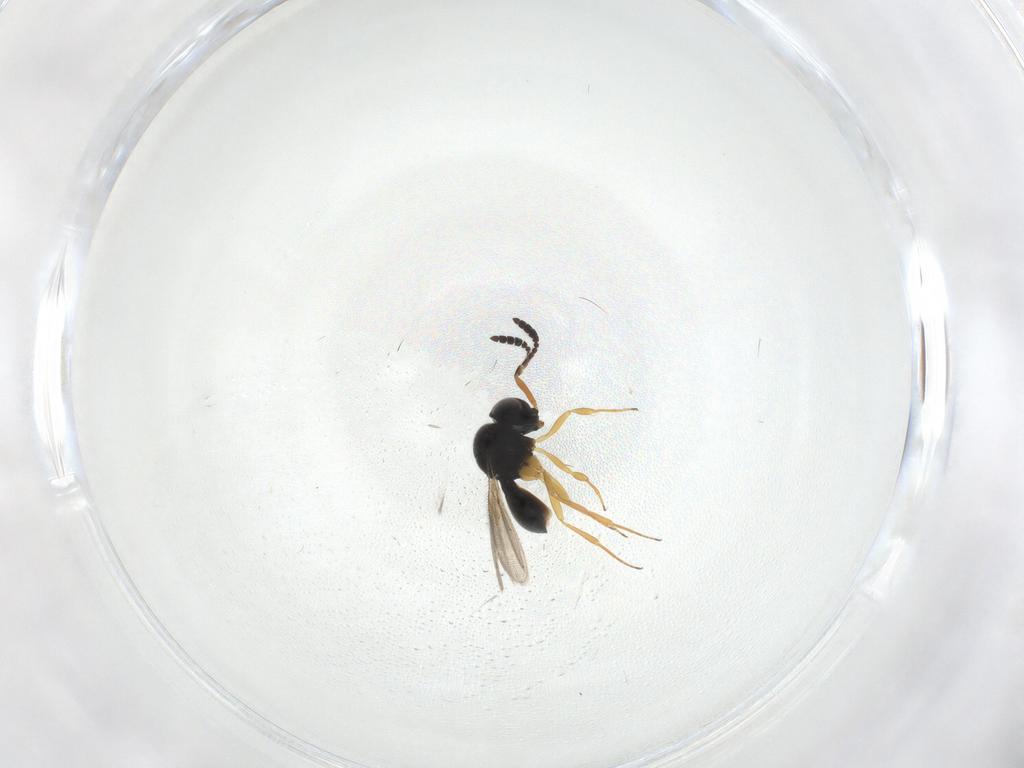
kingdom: Animalia
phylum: Arthropoda
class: Insecta
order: Hymenoptera
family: Scelionidae
